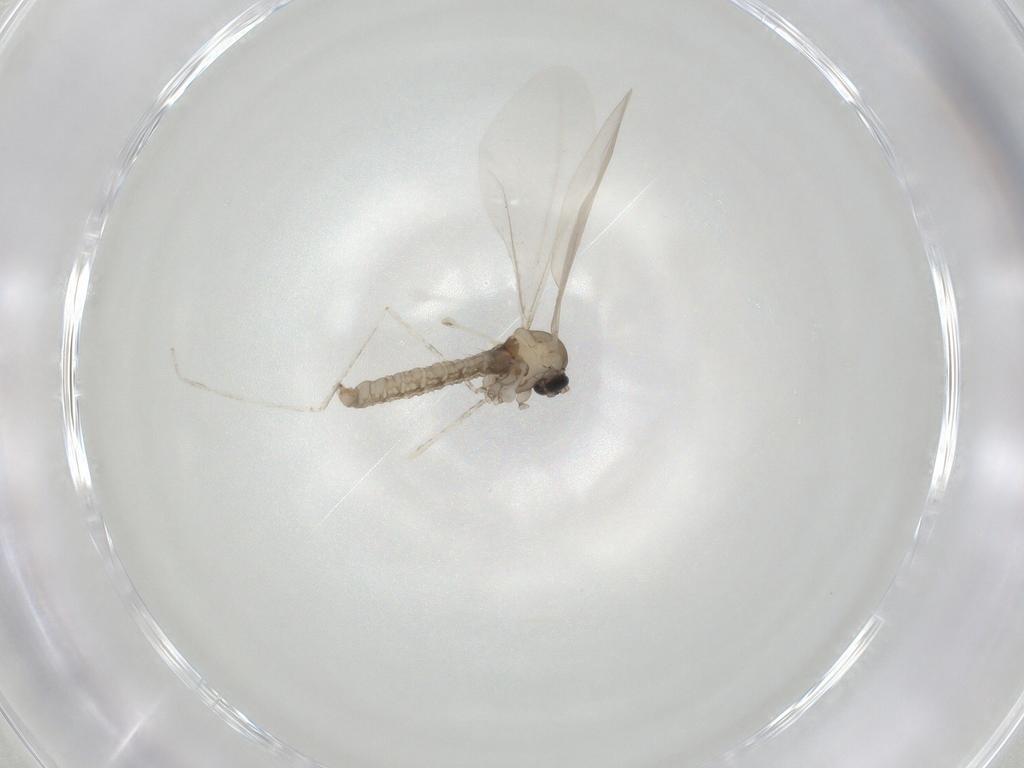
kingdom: Animalia
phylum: Arthropoda
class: Insecta
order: Diptera
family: Cecidomyiidae
